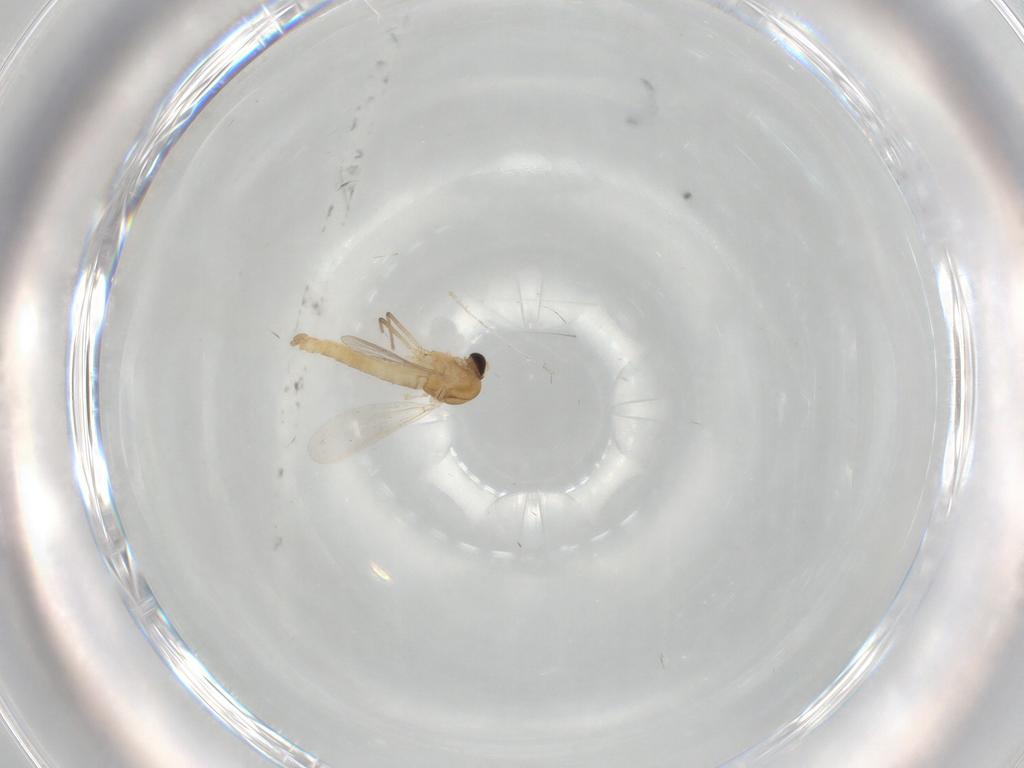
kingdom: Animalia
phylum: Arthropoda
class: Insecta
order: Diptera
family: Chironomidae
